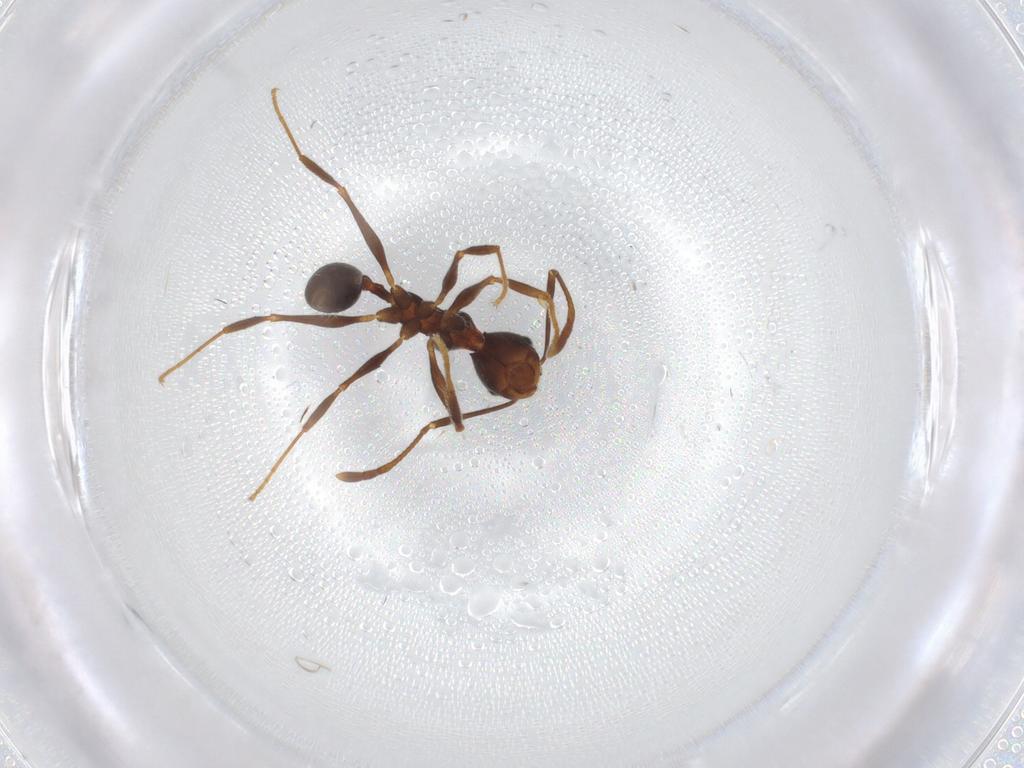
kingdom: Animalia
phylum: Arthropoda
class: Insecta
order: Hymenoptera
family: Formicidae
